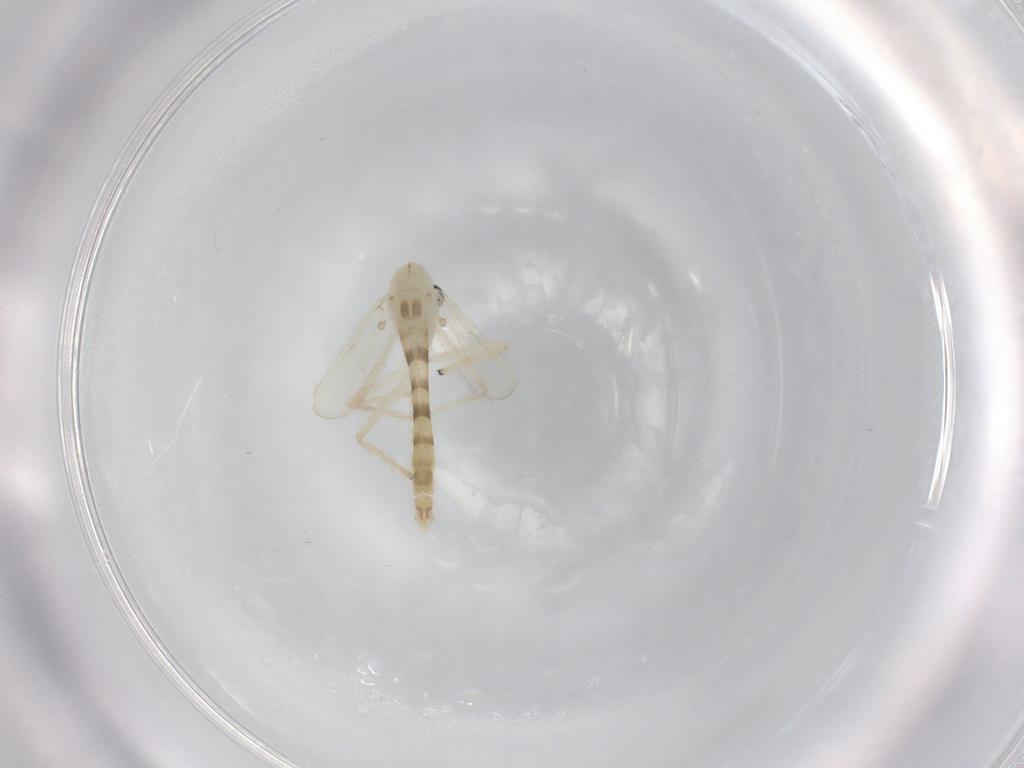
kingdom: Animalia
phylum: Arthropoda
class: Insecta
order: Diptera
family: Chironomidae
